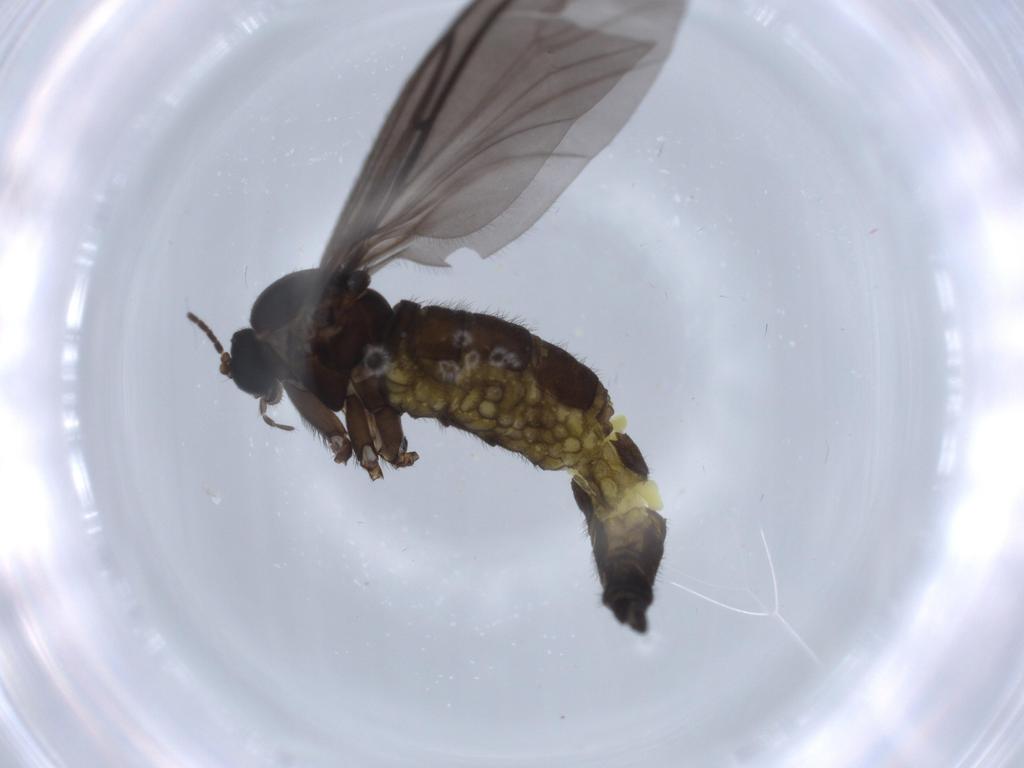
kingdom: Animalia
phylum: Arthropoda
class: Insecta
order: Diptera
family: Sciaridae
